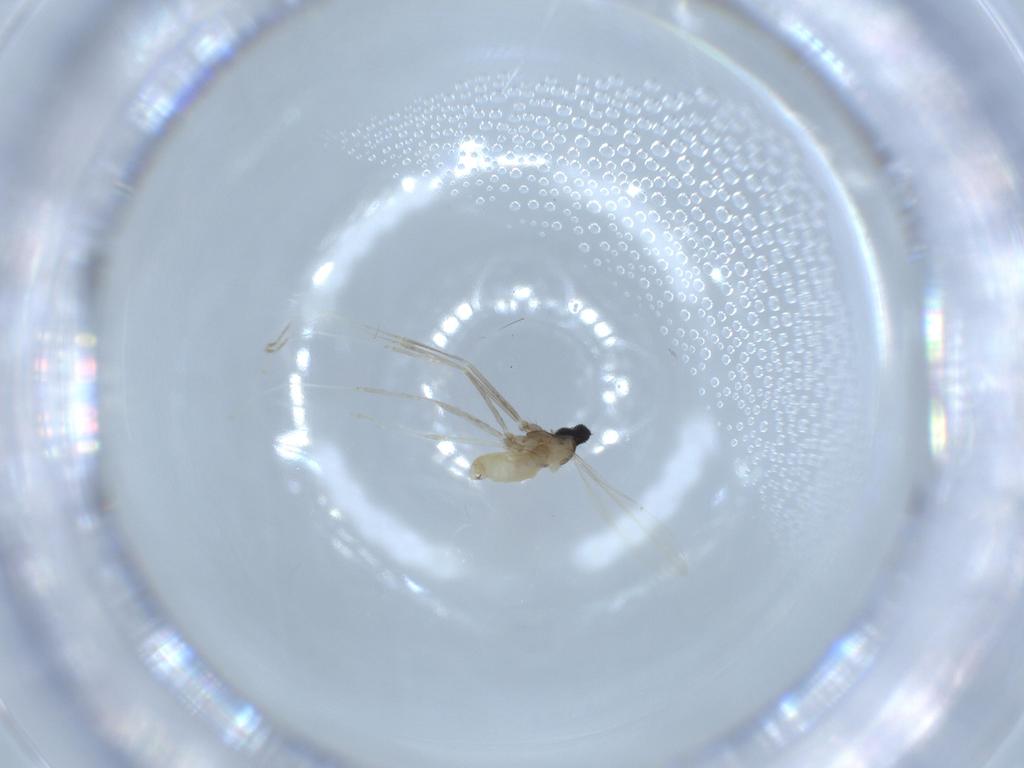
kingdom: Animalia
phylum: Arthropoda
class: Insecta
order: Diptera
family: Cecidomyiidae
